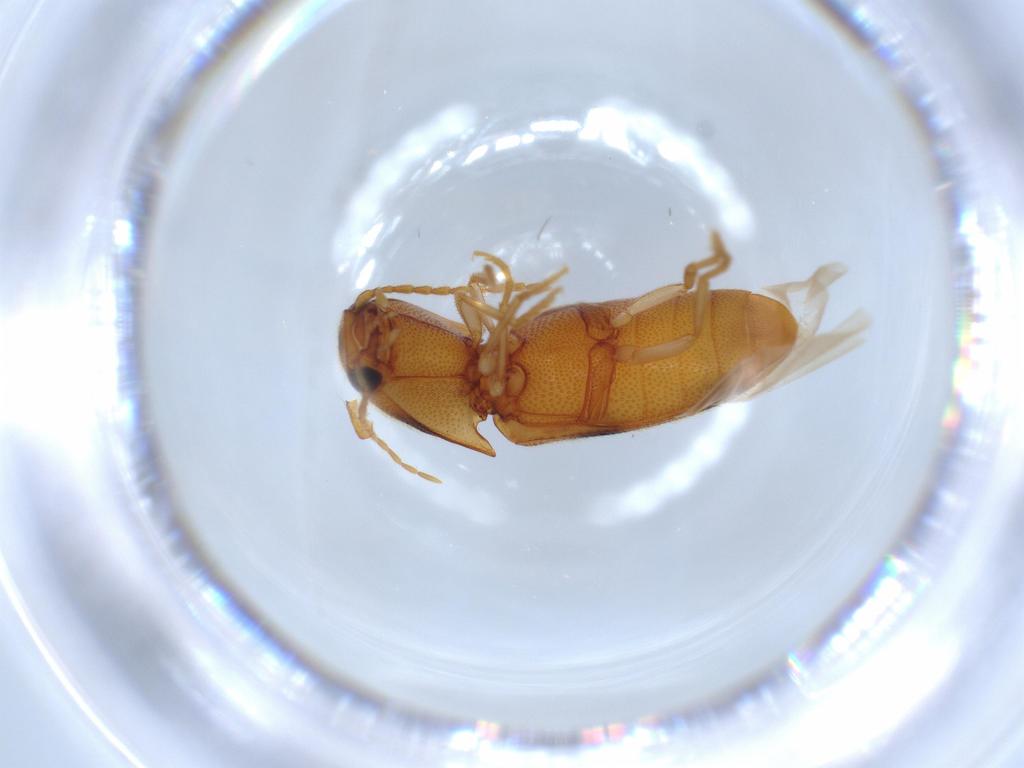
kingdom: Animalia
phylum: Arthropoda
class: Insecta
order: Coleoptera
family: Elateridae
